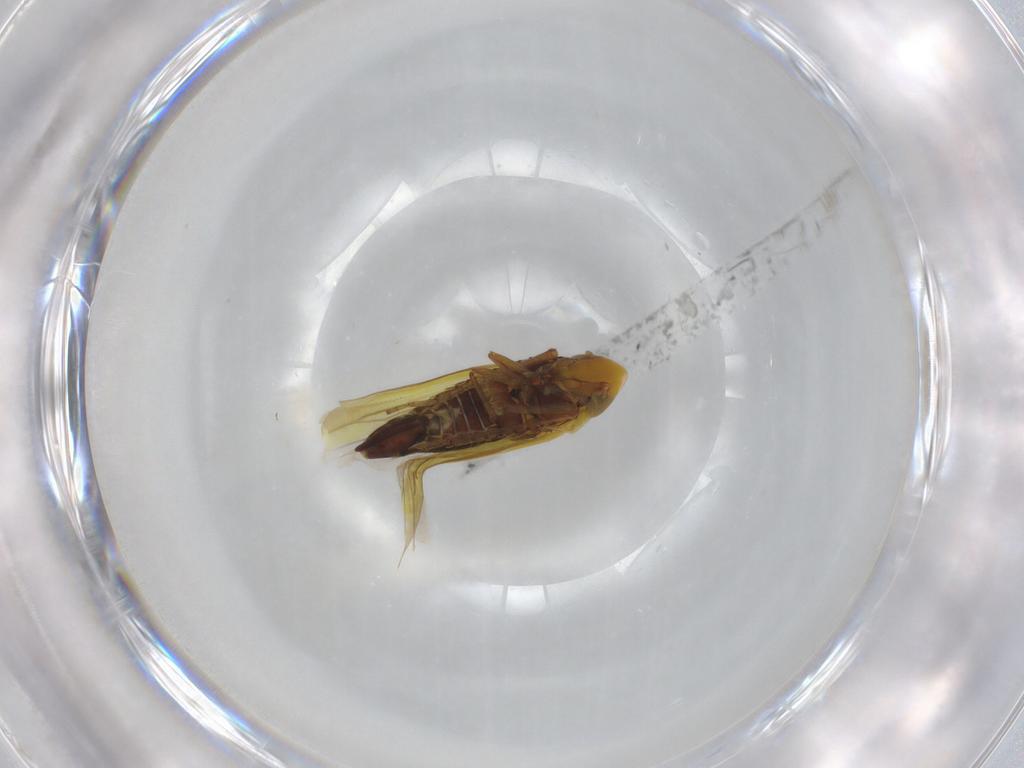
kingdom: Animalia
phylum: Arthropoda
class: Insecta
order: Hemiptera
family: Cicadellidae
